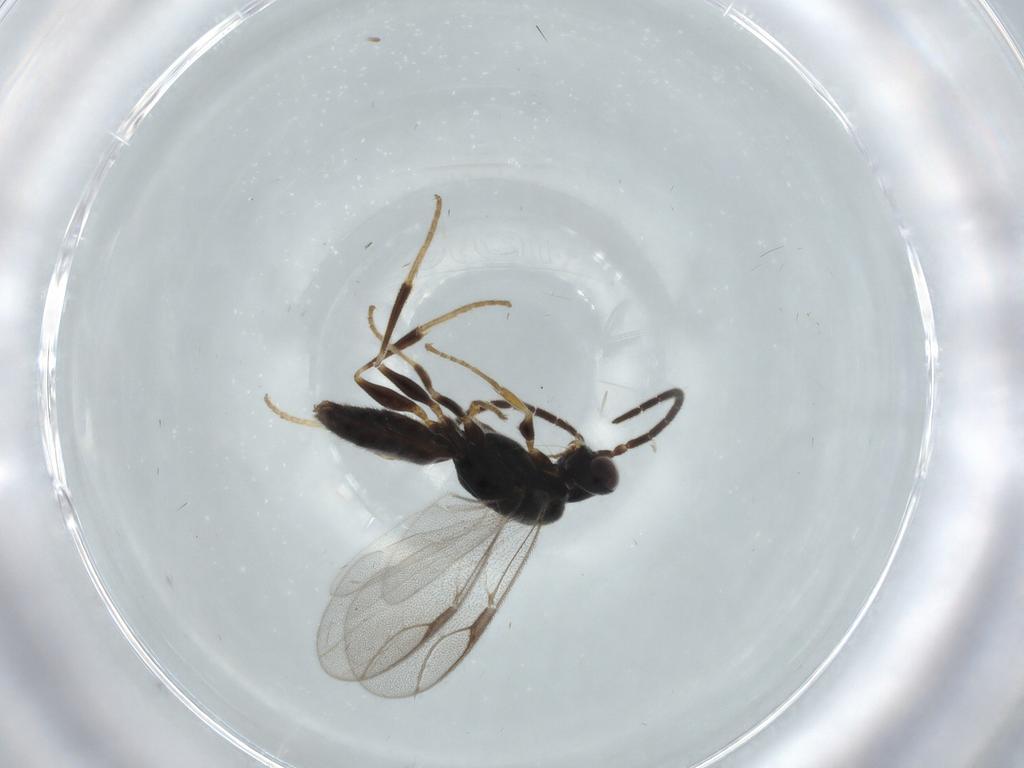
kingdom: Animalia
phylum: Arthropoda
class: Insecta
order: Hymenoptera
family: Dryinidae
